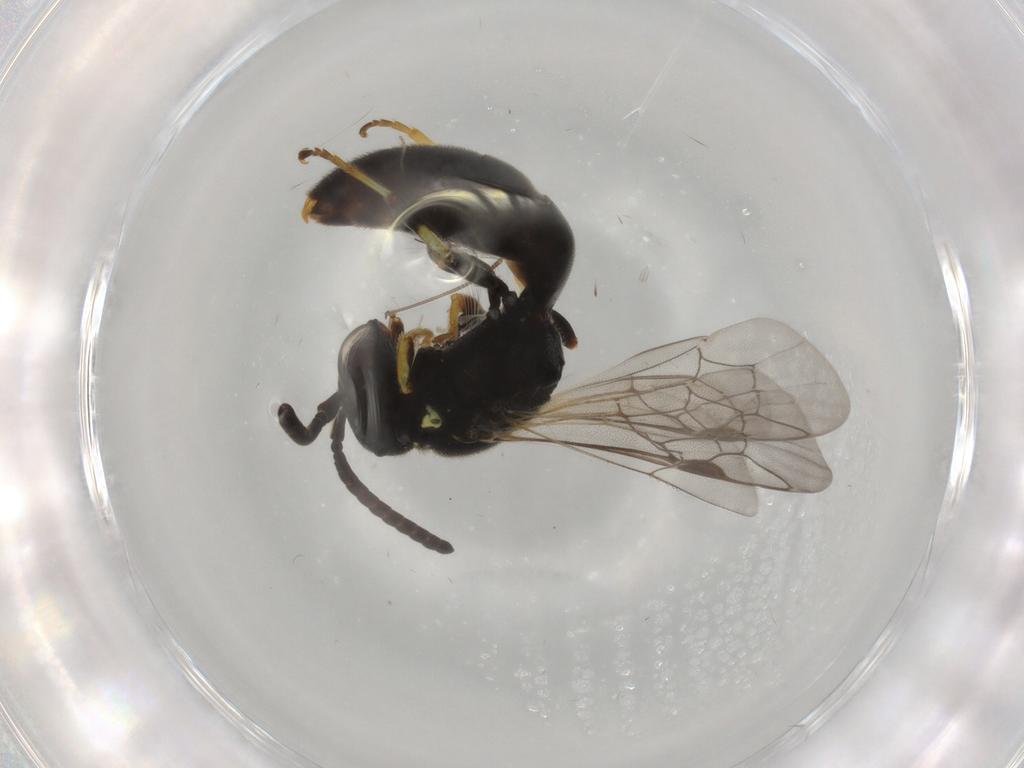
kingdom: Animalia
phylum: Arthropoda
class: Insecta
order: Hymenoptera
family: Colletidae
